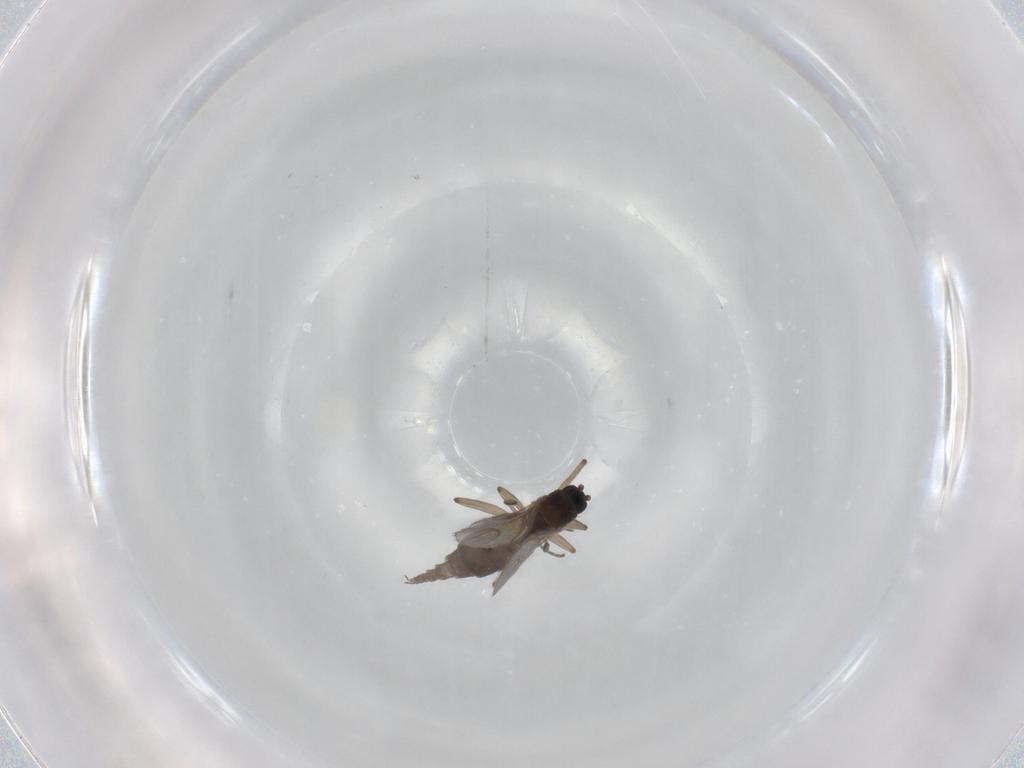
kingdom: Animalia
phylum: Arthropoda
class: Insecta
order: Diptera
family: Sciaridae
